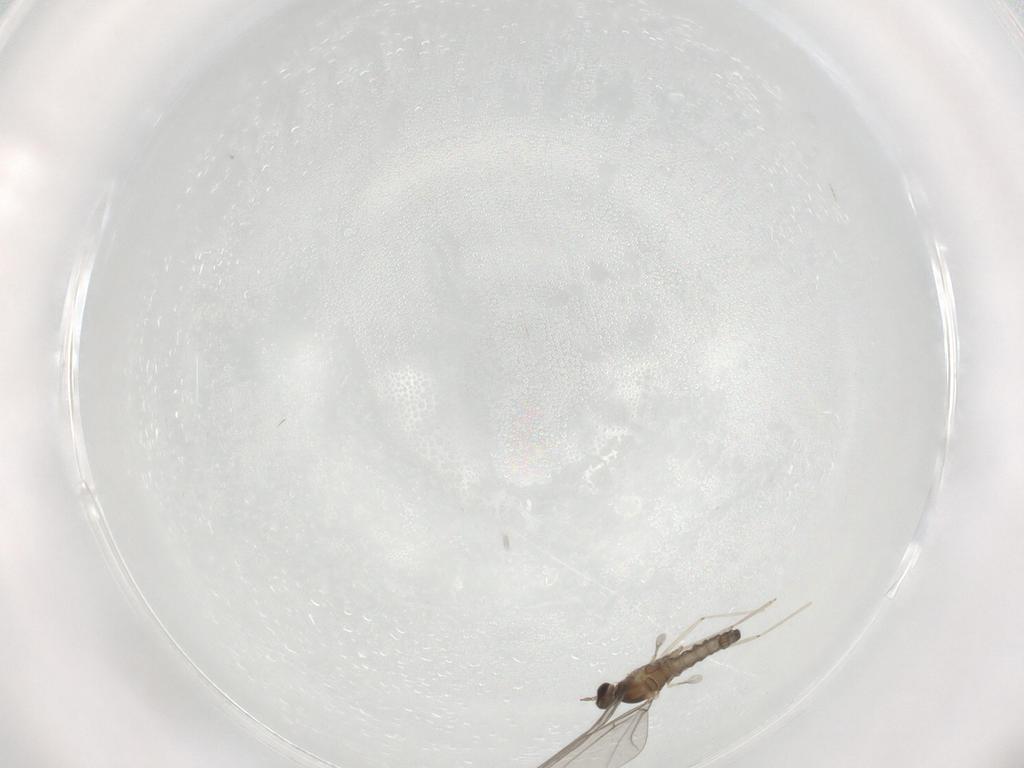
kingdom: Animalia
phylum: Arthropoda
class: Insecta
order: Diptera
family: Hybotidae
